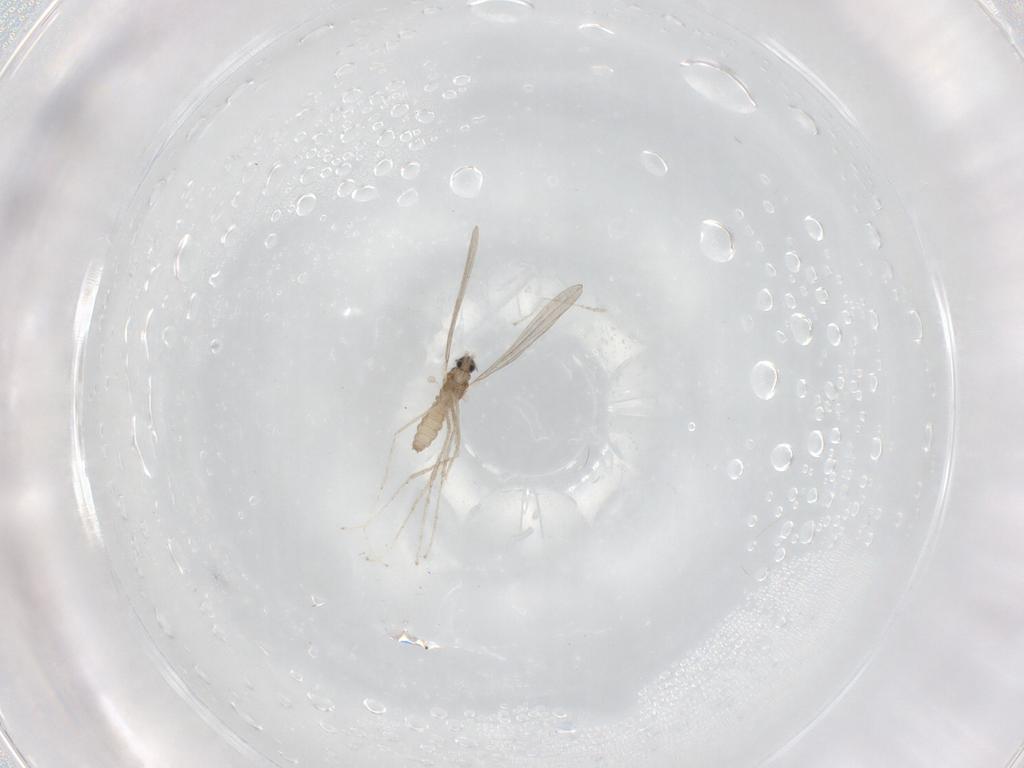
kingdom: Animalia
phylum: Arthropoda
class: Insecta
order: Diptera
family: Cecidomyiidae
